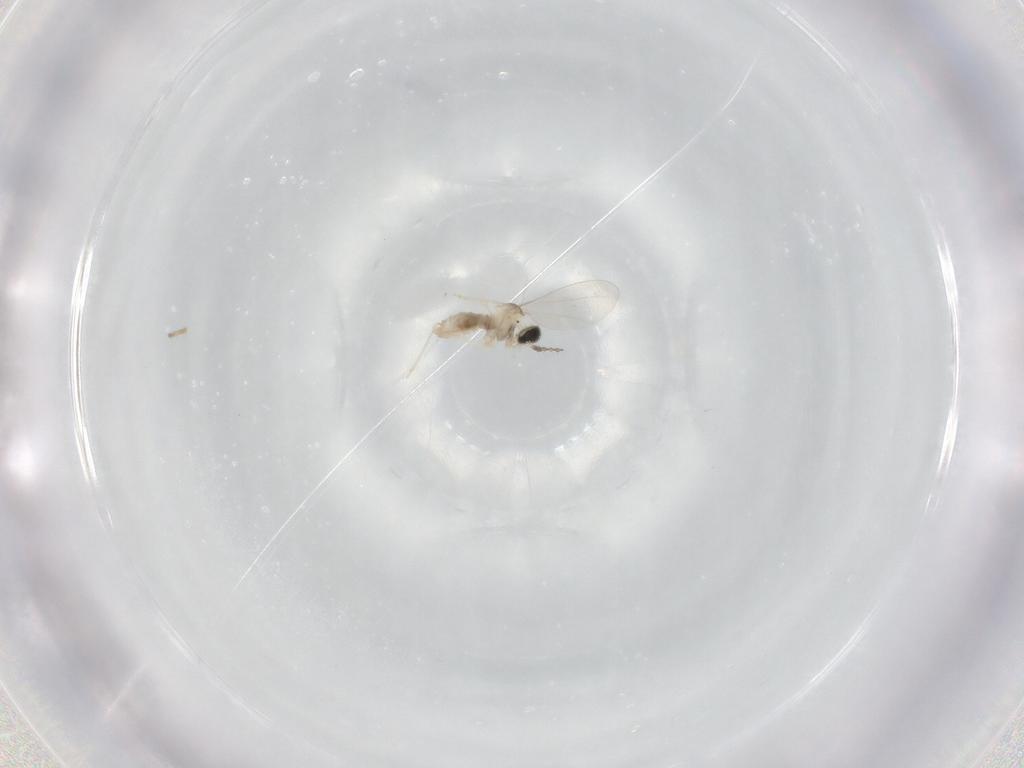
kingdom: Animalia
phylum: Arthropoda
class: Insecta
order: Diptera
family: Cecidomyiidae
